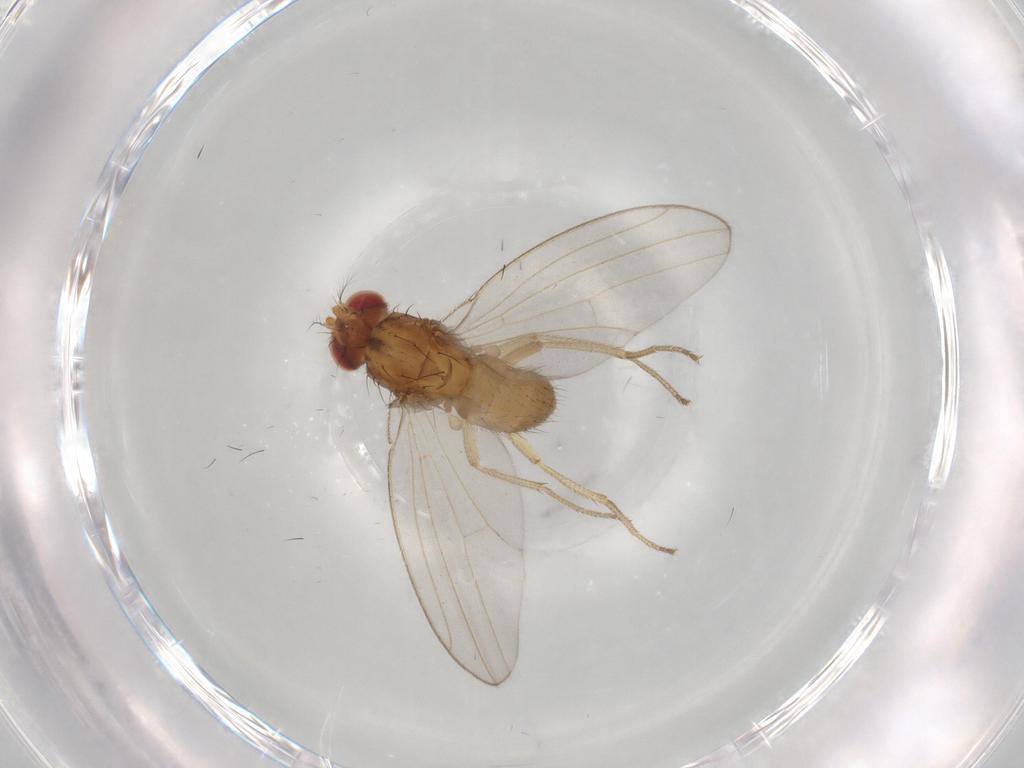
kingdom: Animalia
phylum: Arthropoda
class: Insecta
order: Diptera
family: Drosophilidae
